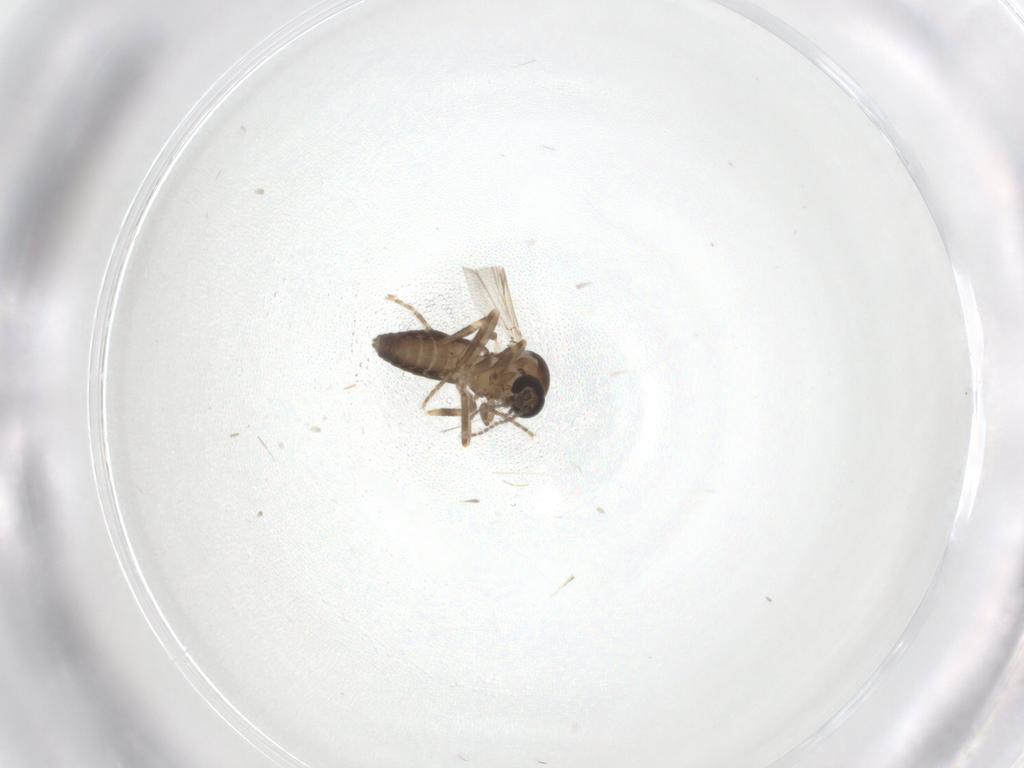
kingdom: Animalia
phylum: Arthropoda
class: Insecta
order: Diptera
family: Ceratopogonidae
